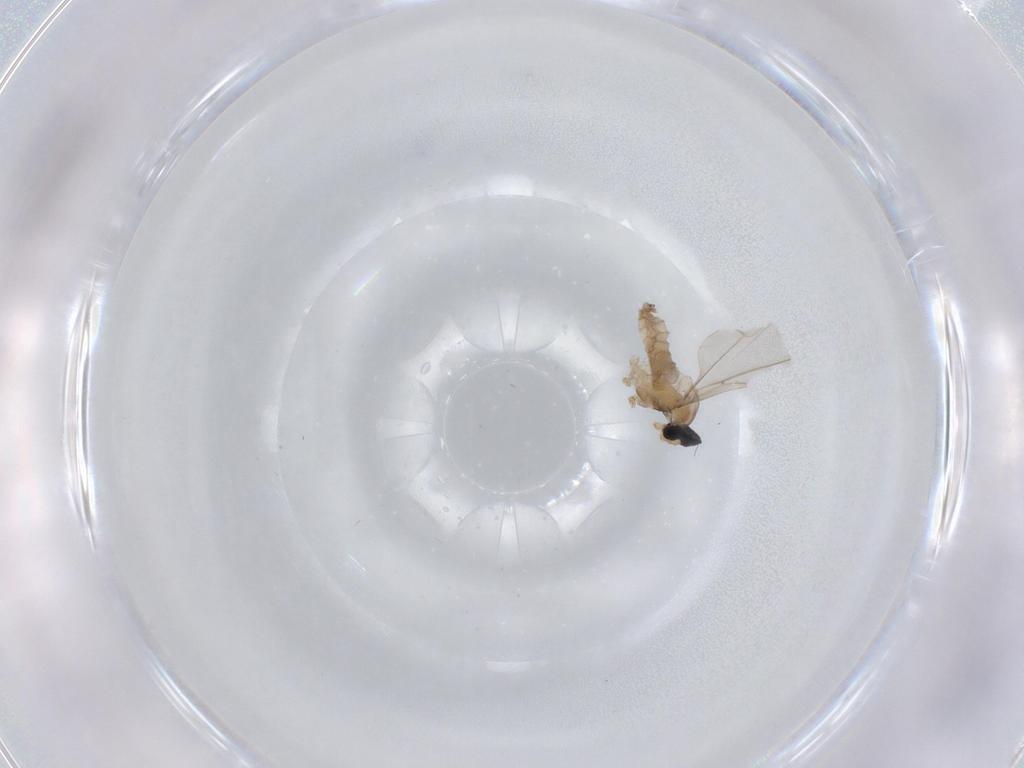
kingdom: Animalia
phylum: Arthropoda
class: Insecta
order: Diptera
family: Cecidomyiidae
